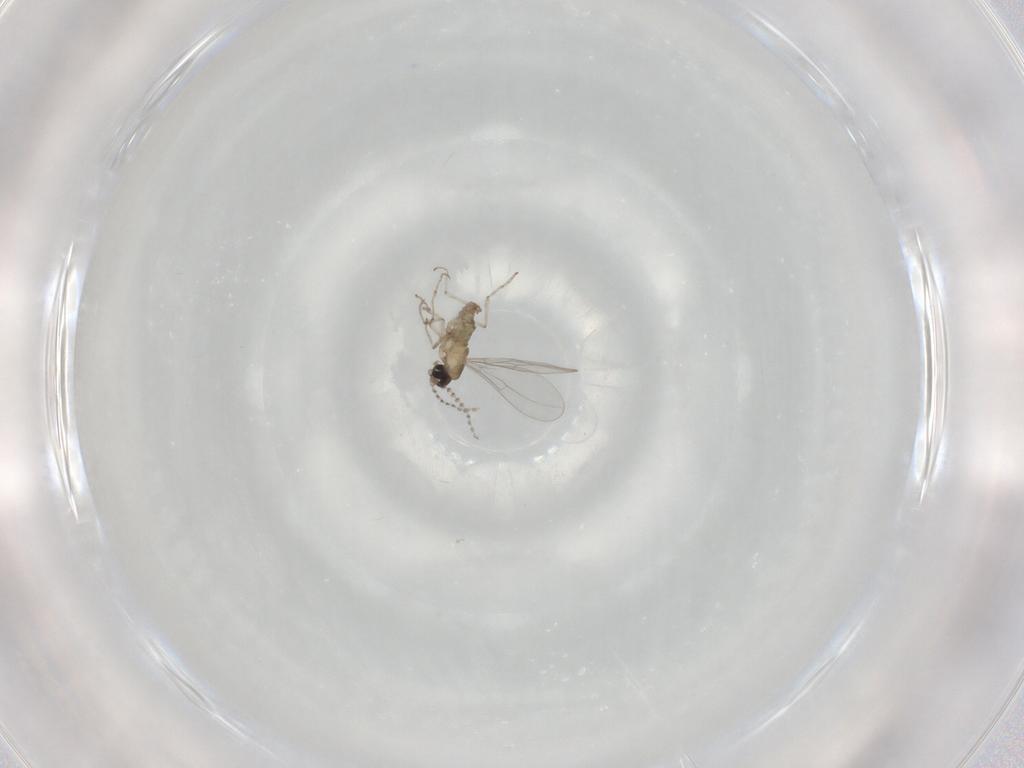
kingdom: Animalia
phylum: Arthropoda
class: Insecta
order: Diptera
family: Cecidomyiidae
